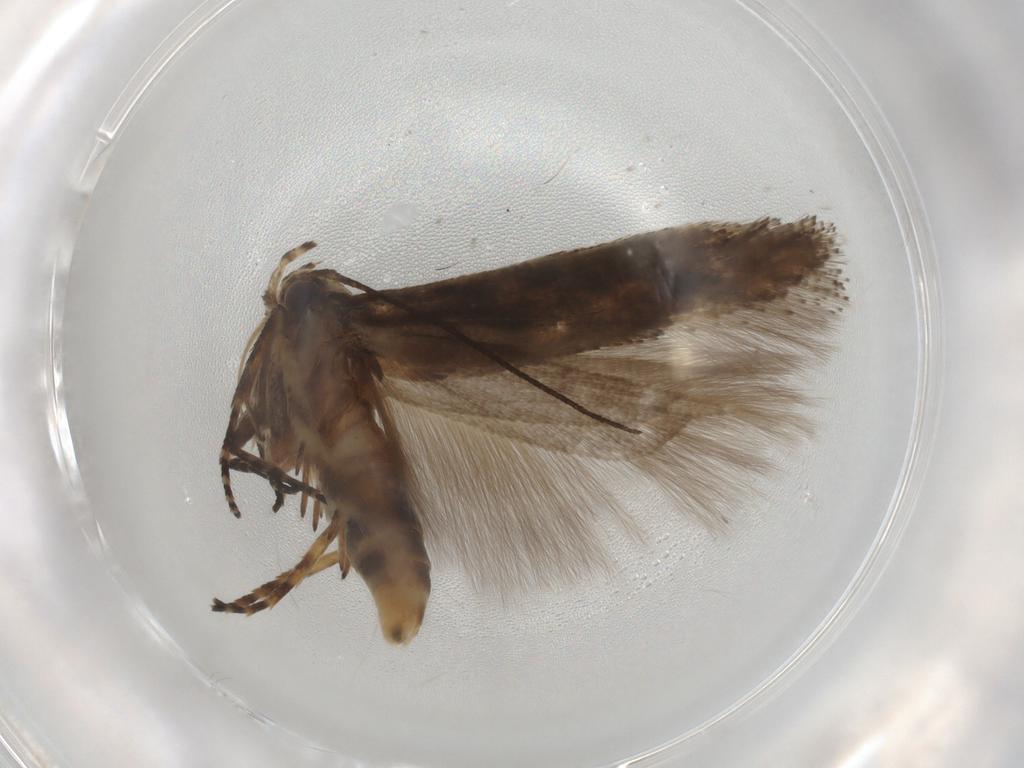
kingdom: Animalia
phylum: Arthropoda
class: Insecta
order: Lepidoptera
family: Gelechiidae
